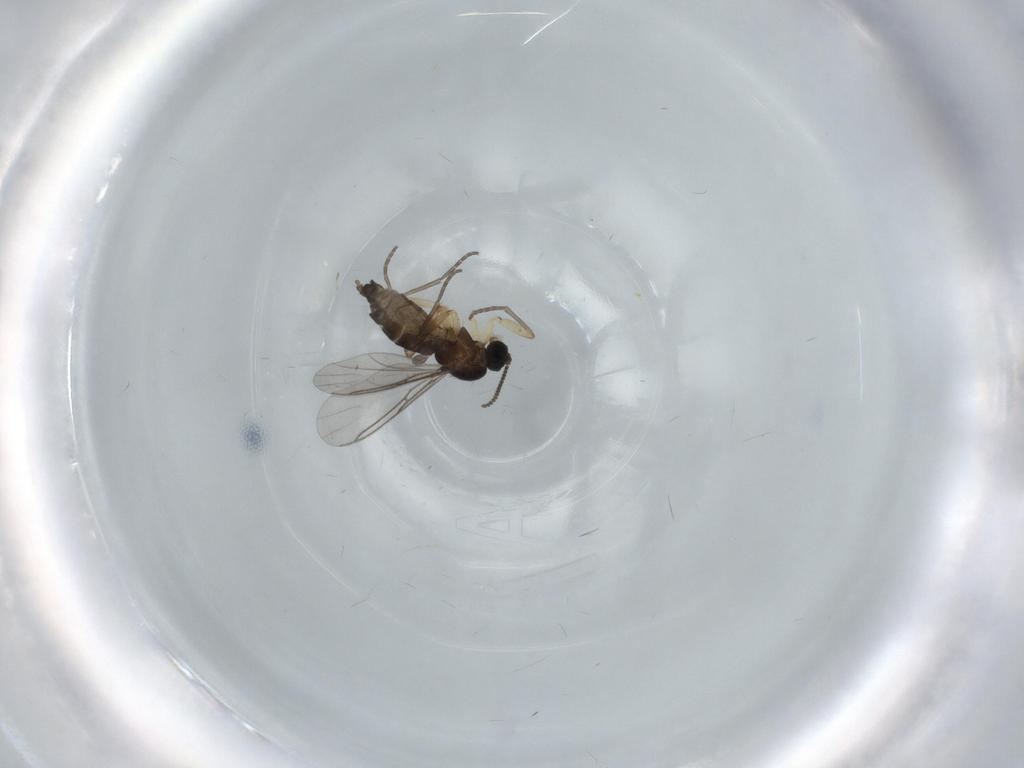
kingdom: Animalia
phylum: Arthropoda
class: Insecta
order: Diptera
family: Sciaridae
